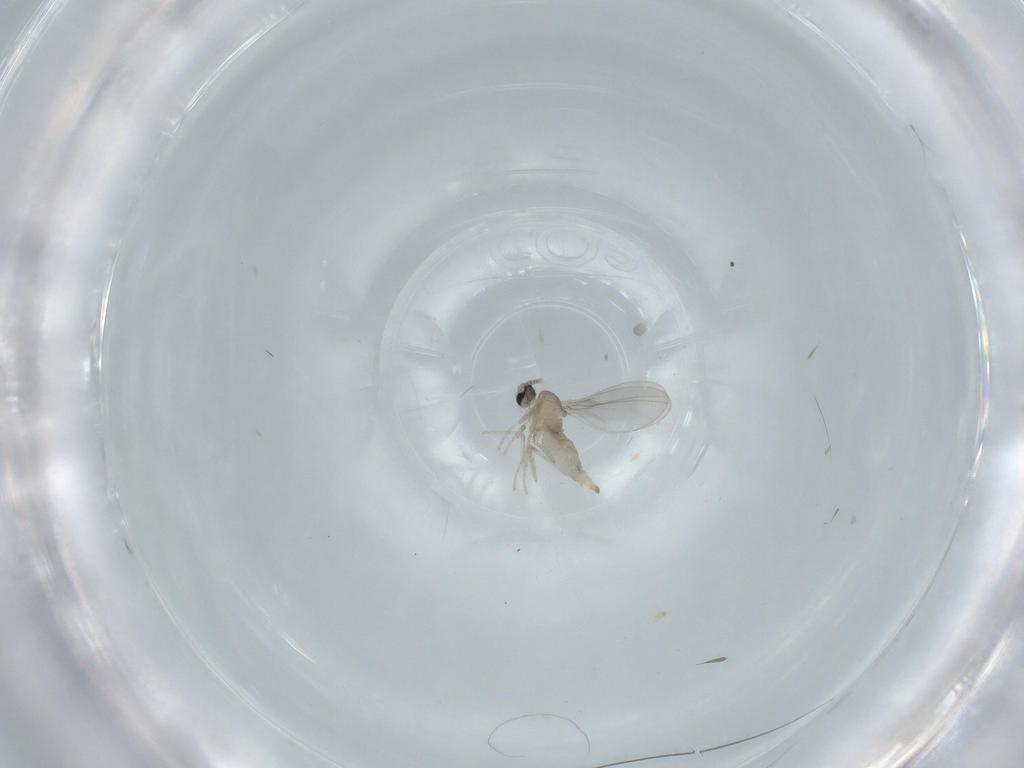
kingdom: Animalia
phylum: Arthropoda
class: Insecta
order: Diptera
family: Cecidomyiidae
